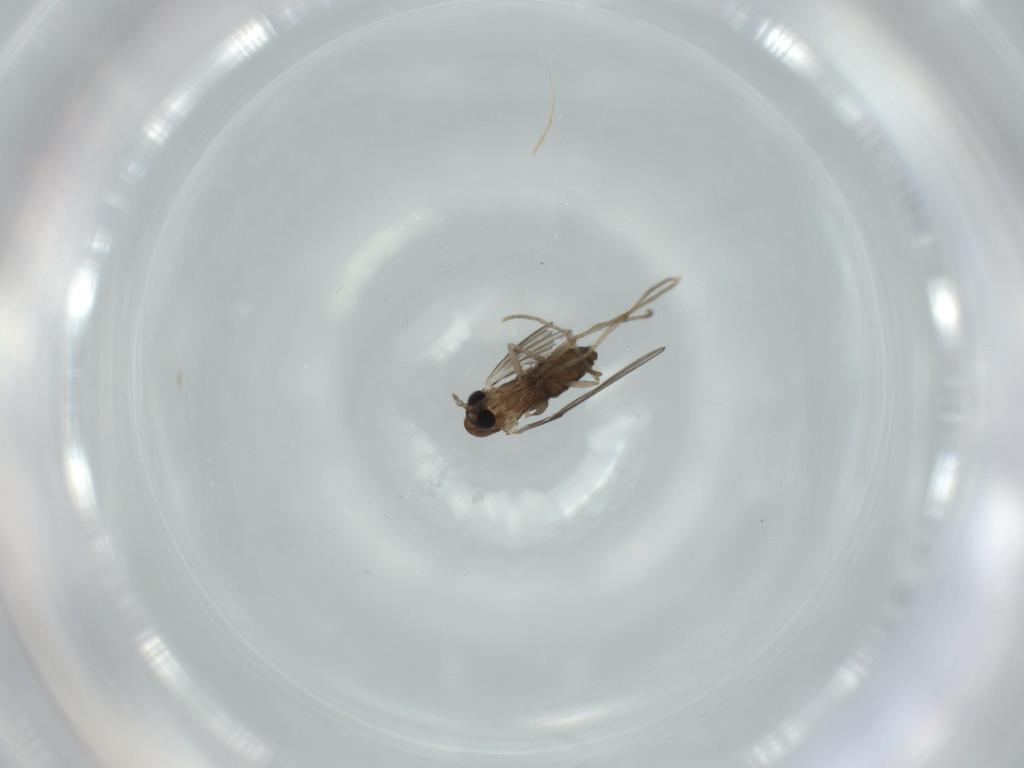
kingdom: Animalia
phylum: Arthropoda
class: Insecta
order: Diptera
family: Psychodidae
